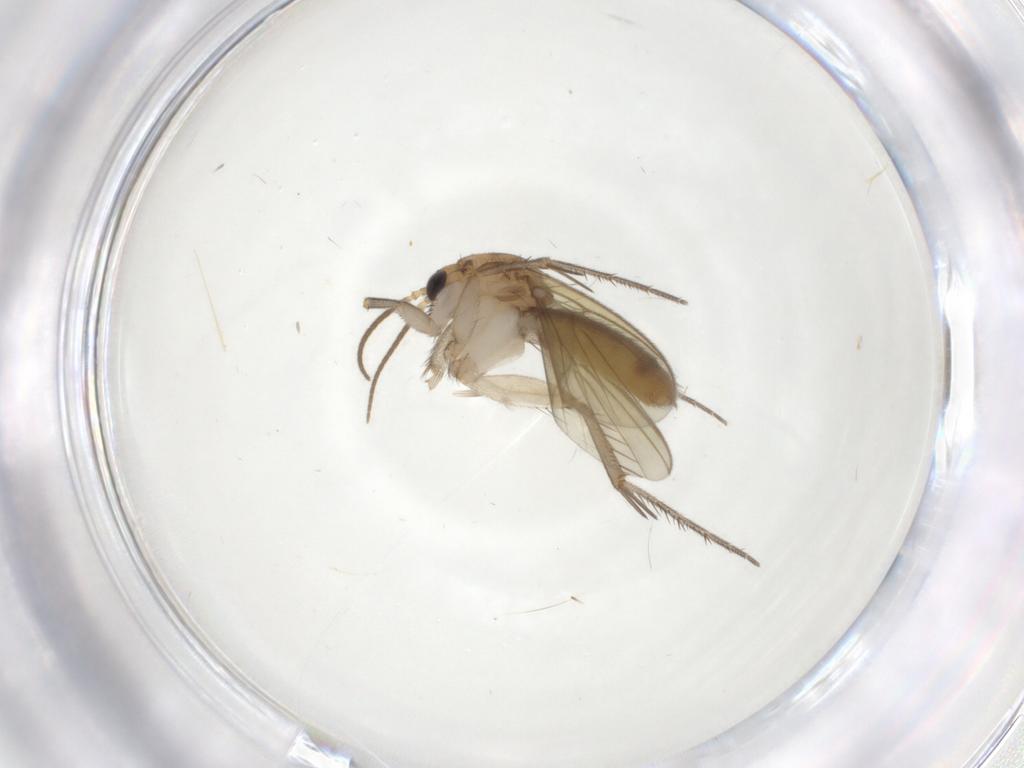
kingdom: Animalia
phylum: Arthropoda
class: Insecta
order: Diptera
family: Mycetophilidae
